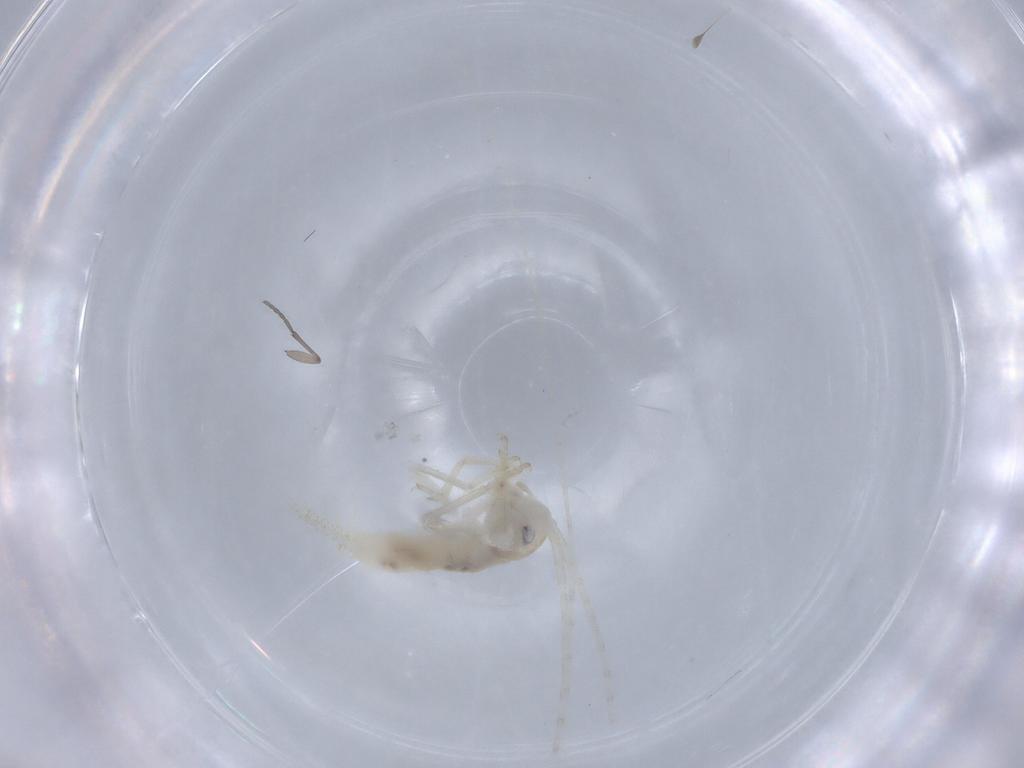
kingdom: Animalia
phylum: Arthropoda
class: Insecta
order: Orthoptera
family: Trigonidiidae
